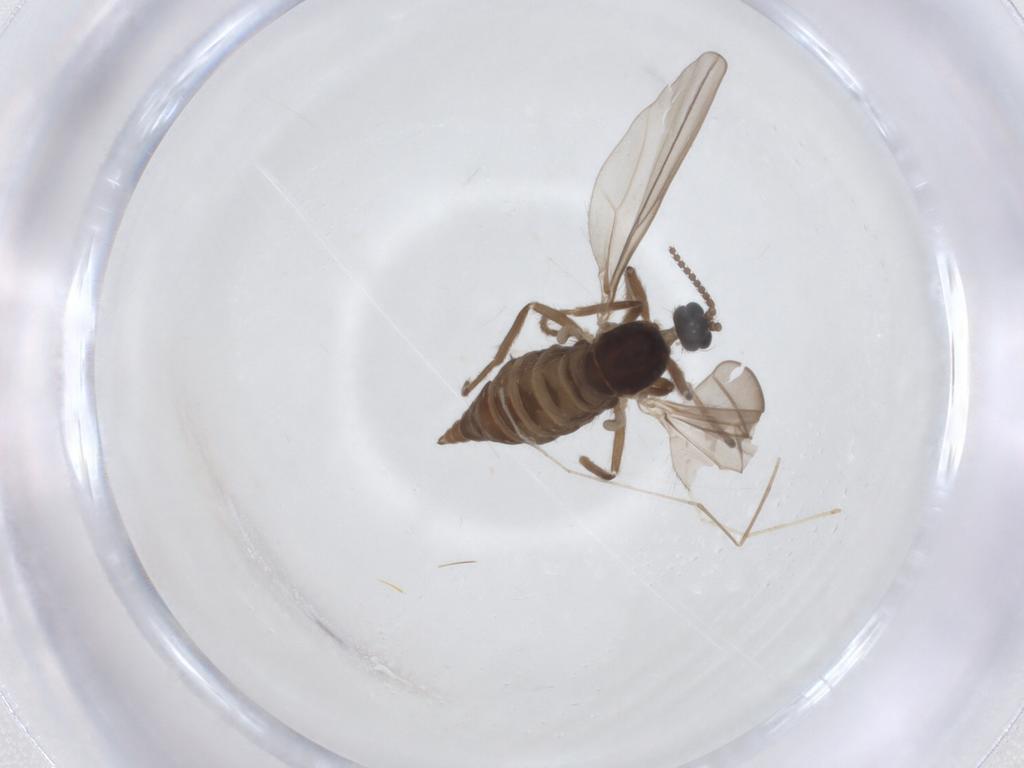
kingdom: Animalia
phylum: Arthropoda
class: Insecta
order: Diptera
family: Cecidomyiidae
